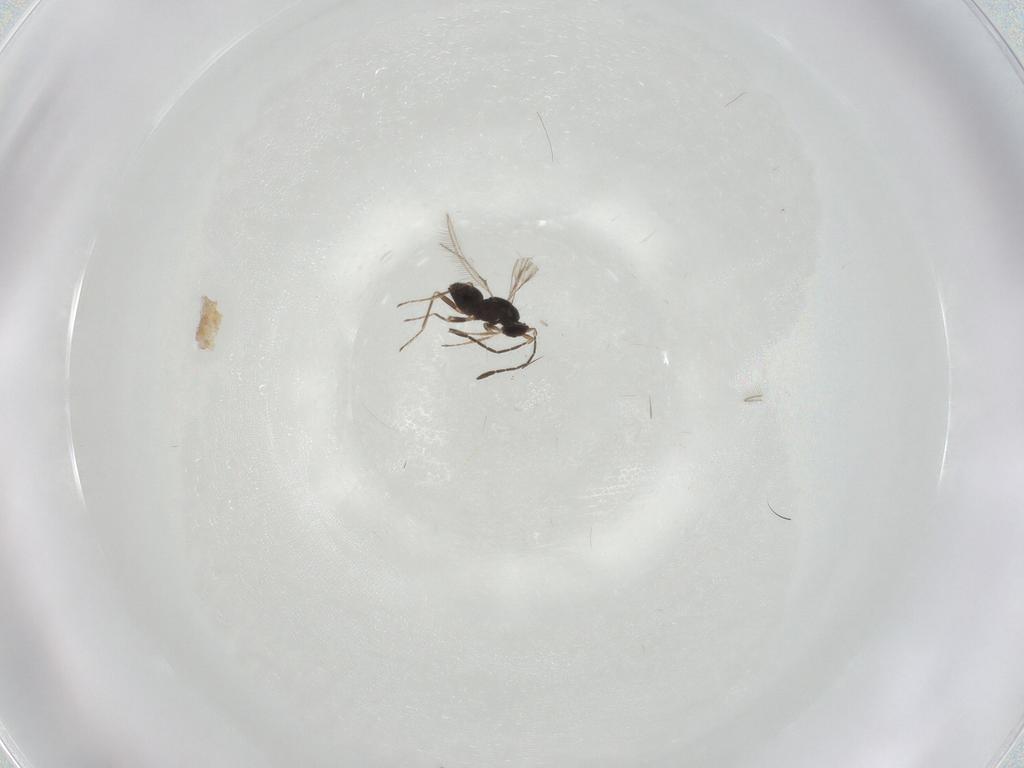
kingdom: Animalia
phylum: Arthropoda
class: Insecta
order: Hymenoptera
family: Mymaridae
